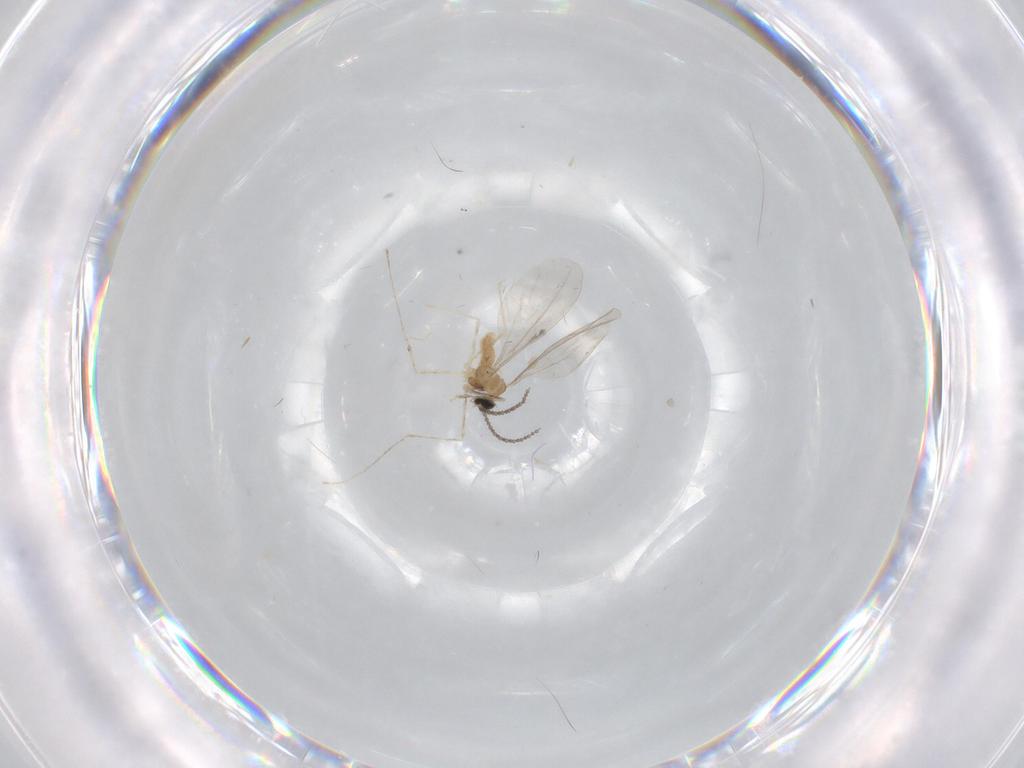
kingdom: Animalia
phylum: Arthropoda
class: Insecta
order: Diptera
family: Cecidomyiidae
